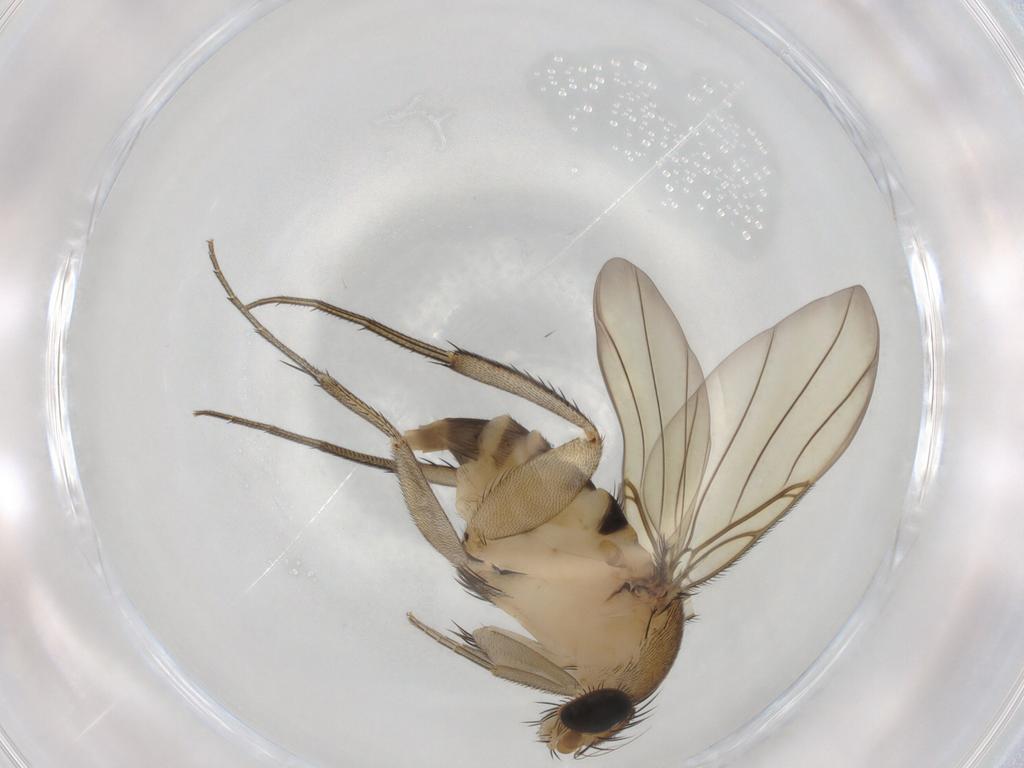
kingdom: Animalia
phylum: Arthropoda
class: Insecta
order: Diptera
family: Phoridae
